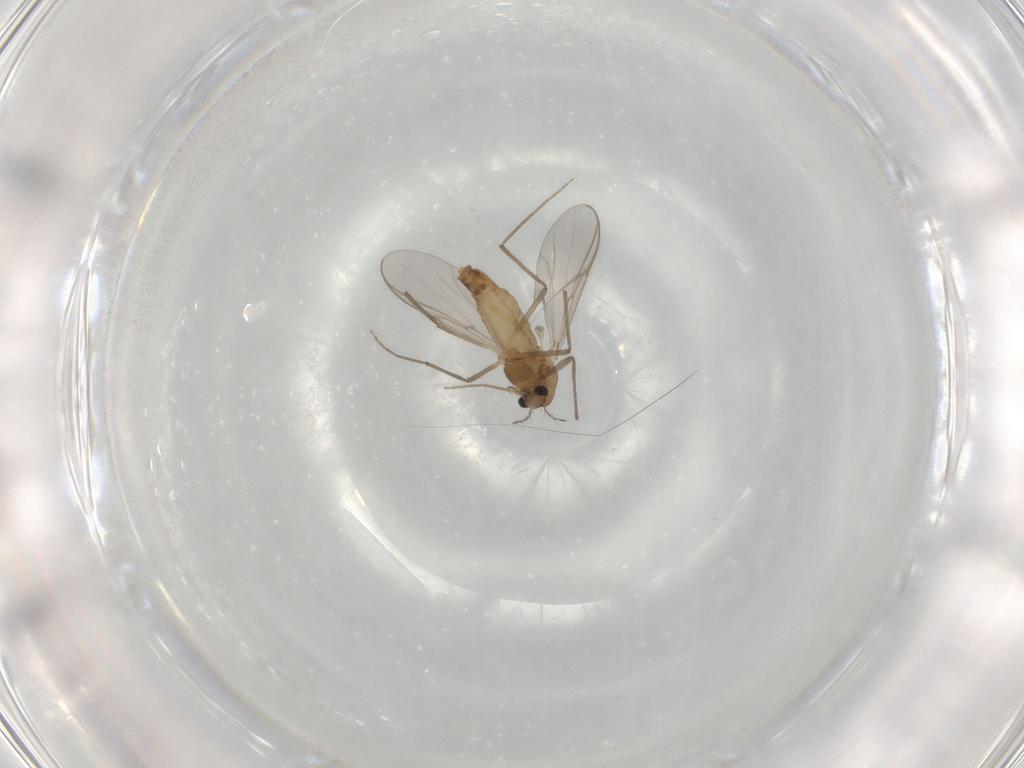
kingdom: Animalia
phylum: Arthropoda
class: Insecta
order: Diptera
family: Chironomidae
